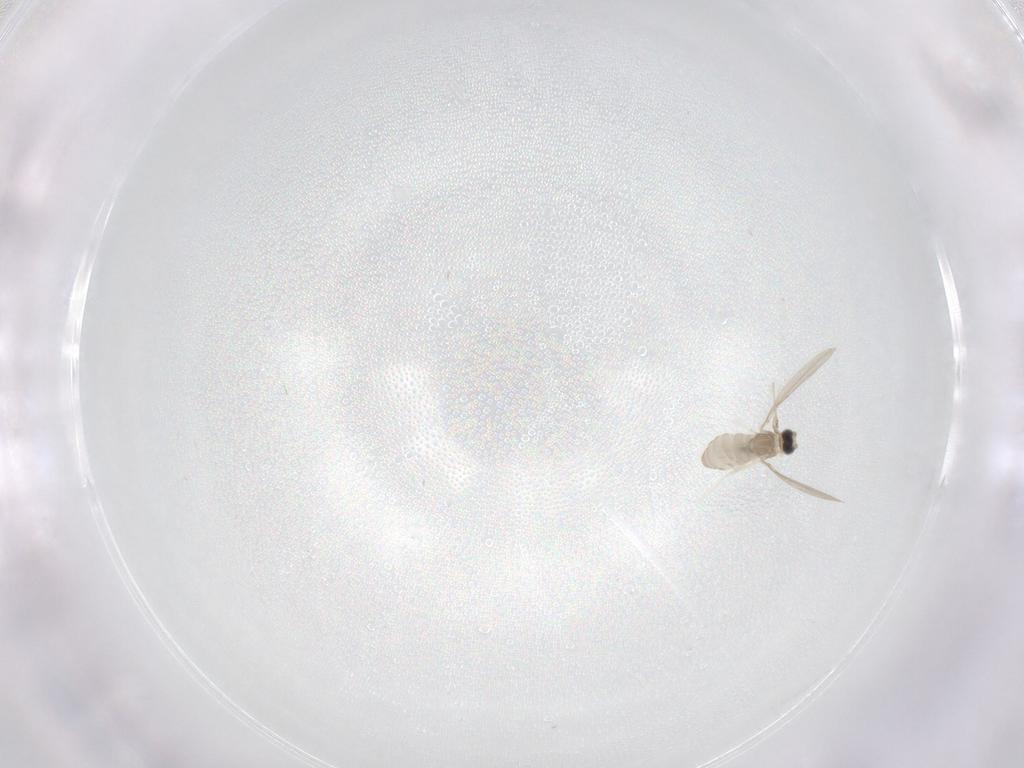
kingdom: Animalia
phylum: Arthropoda
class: Insecta
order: Diptera
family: Cecidomyiidae
